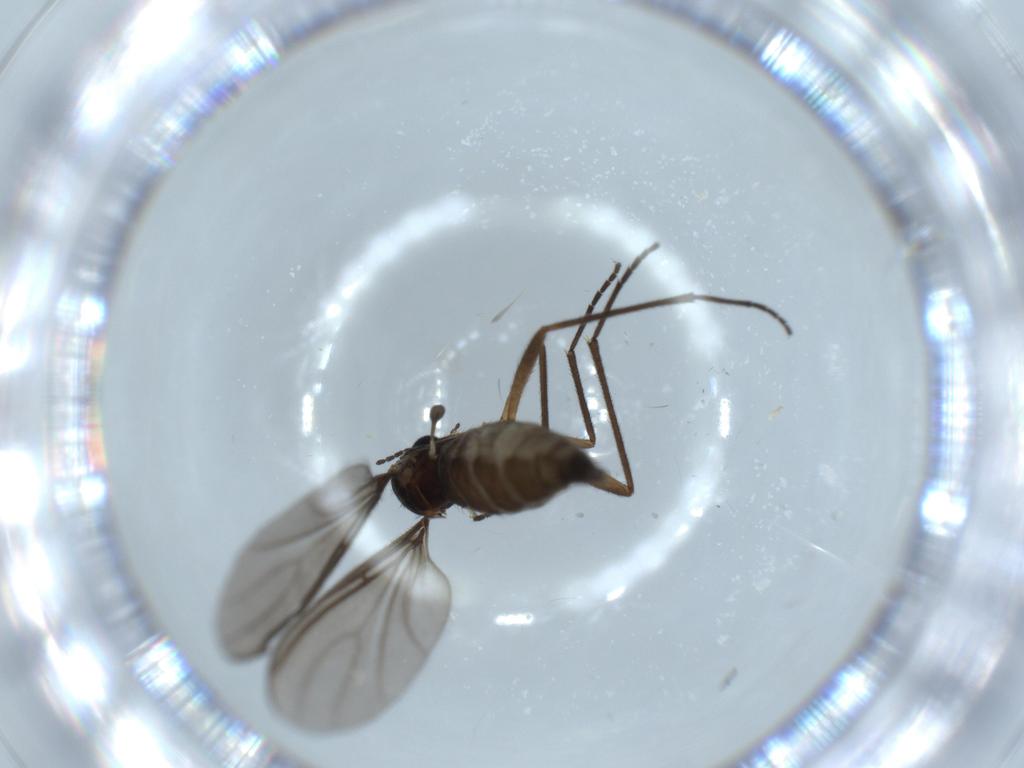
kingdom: Animalia
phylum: Arthropoda
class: Insecta
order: Diptera
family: Sciaridae
